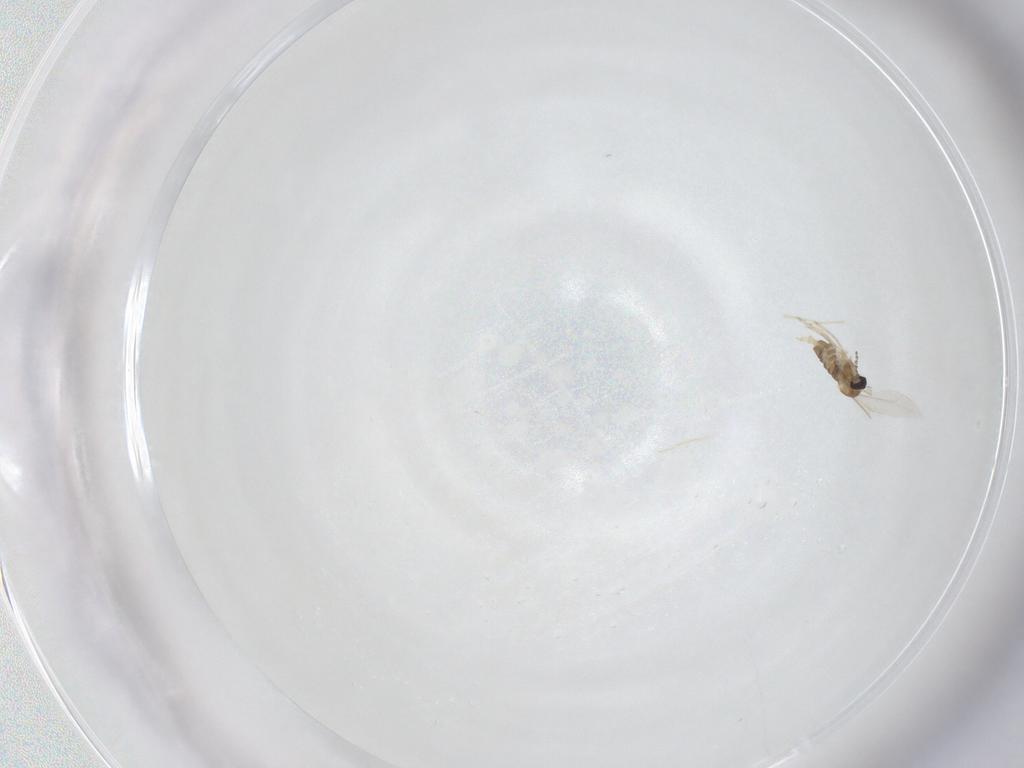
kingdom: Animalia
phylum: Arthropoda
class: Insecta
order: Diptera
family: Cecidomyiidae
